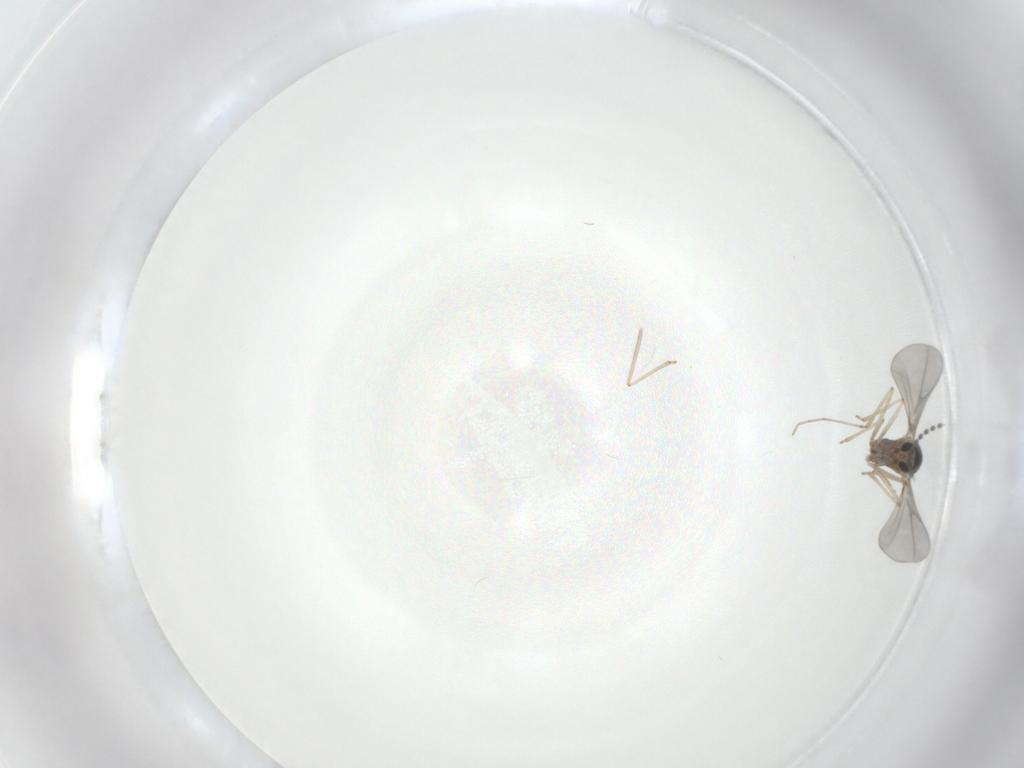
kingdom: Animalia
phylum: Arthropoda
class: Insecta
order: Diptera
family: Cecidomyiidae
